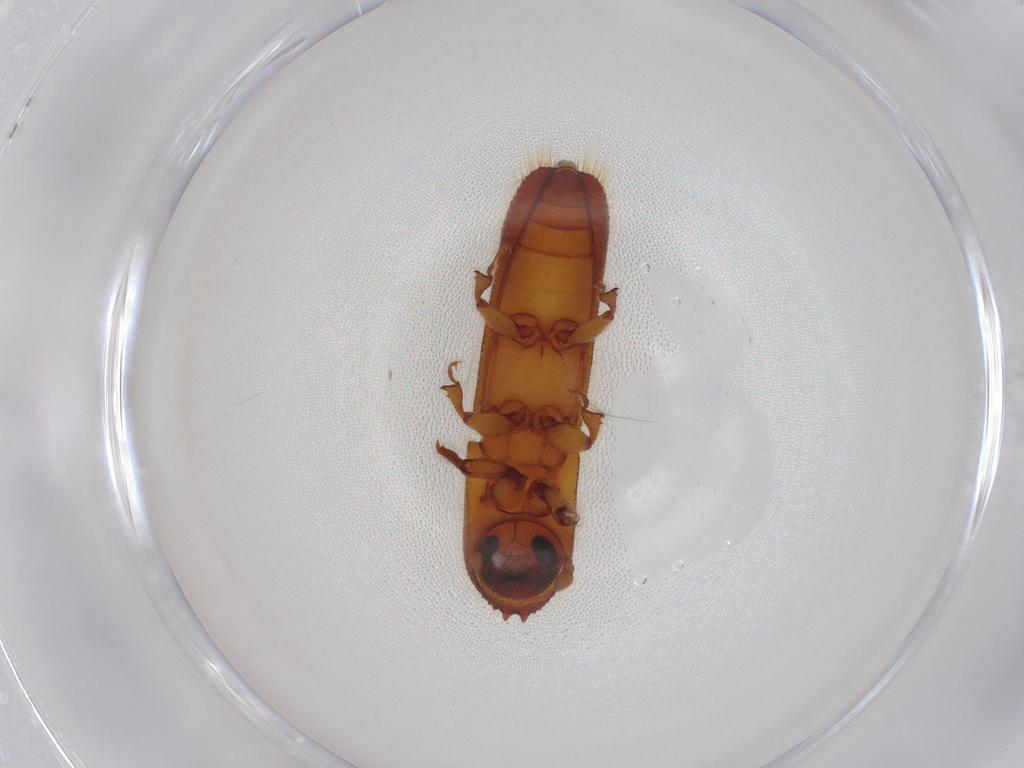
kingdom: Animalia
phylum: Arthropoda
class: Insecta
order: Coleoptera
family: Curculionidae
